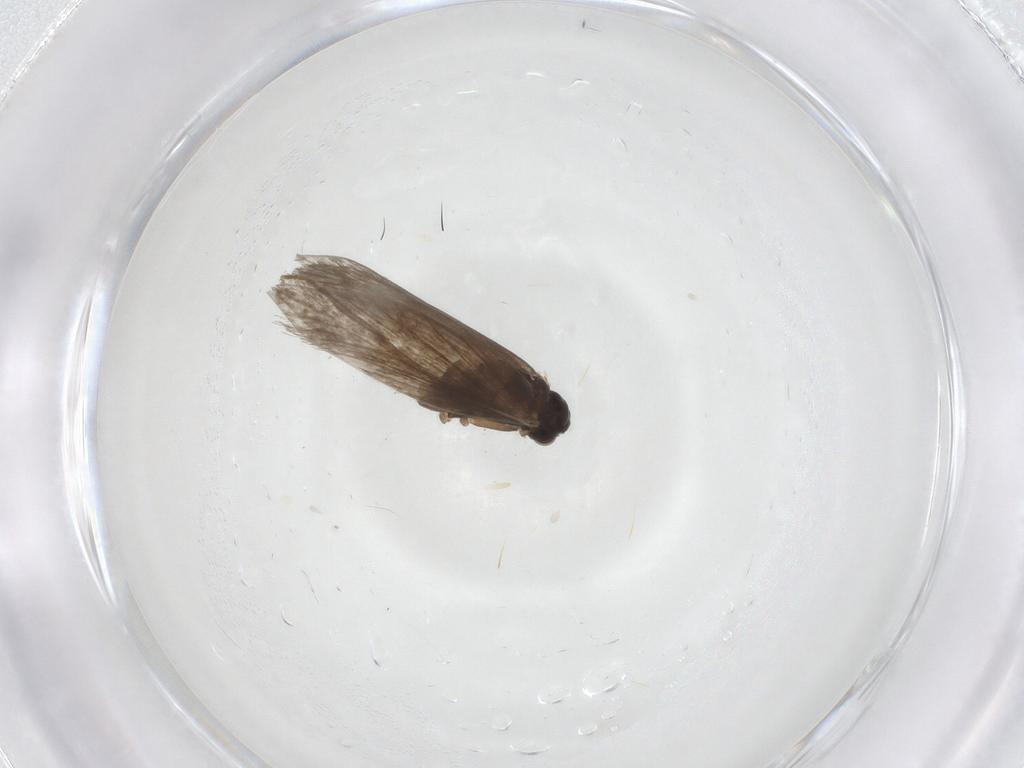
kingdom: Animalia
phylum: Arthropoda
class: Insecta
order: Lepidoptera
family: Micropterigidae
